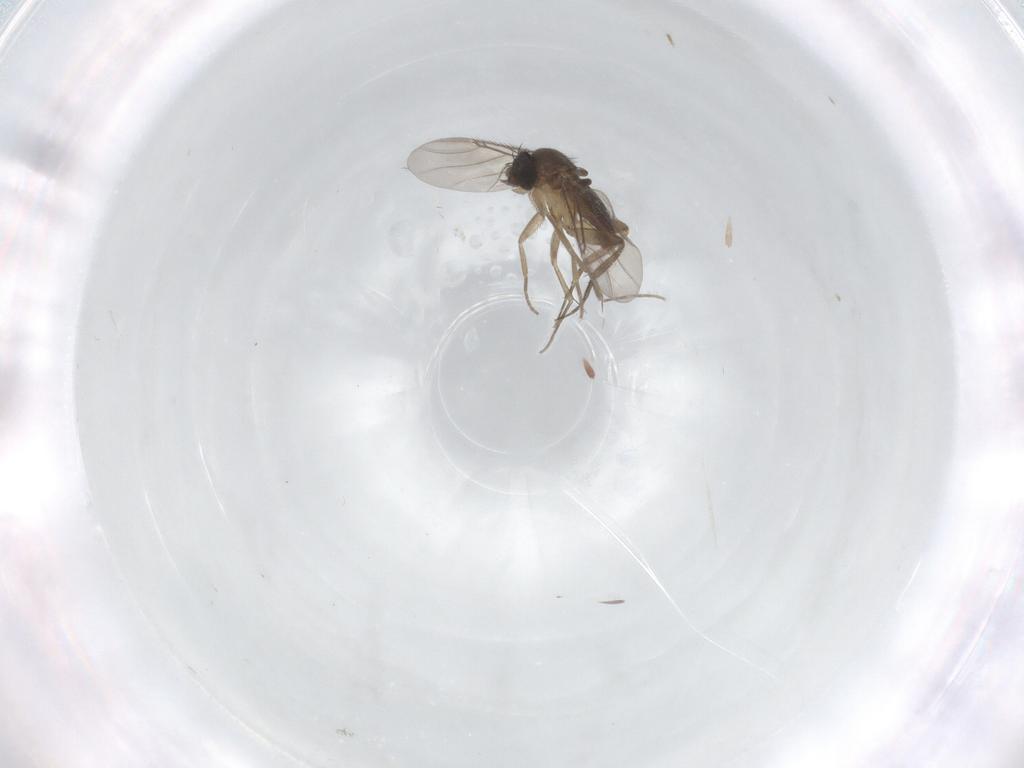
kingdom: Animalia
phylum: Arthropoda
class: Insecta
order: Diptera
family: Phoridae
